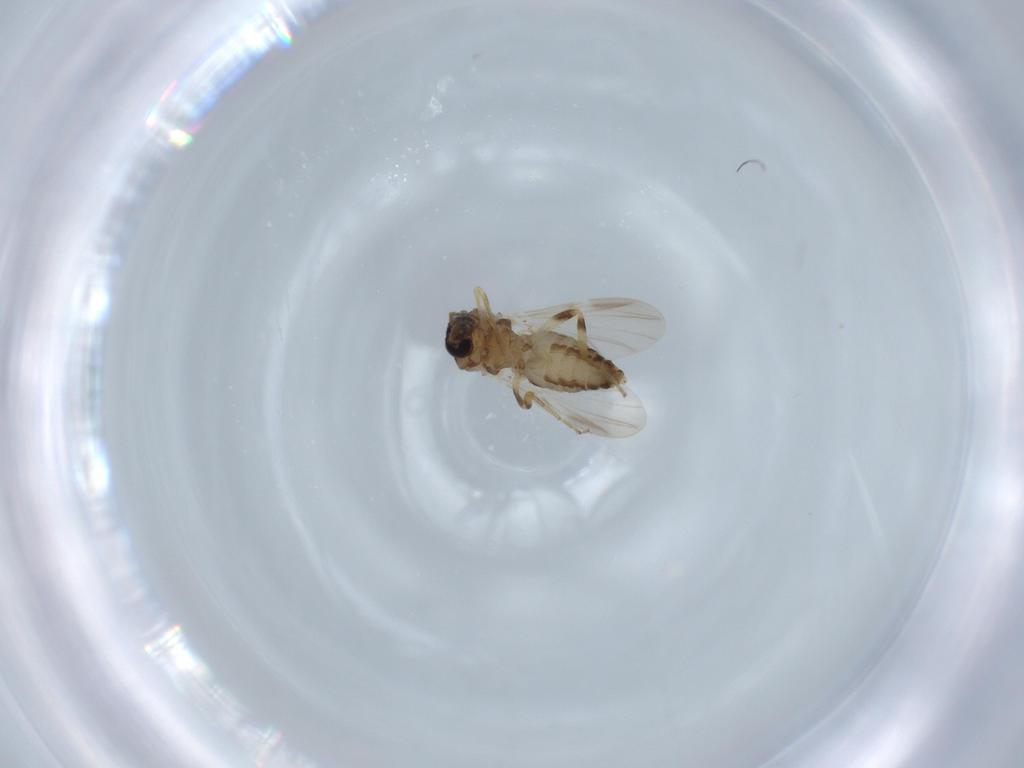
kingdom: Animalia
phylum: Arthropoda
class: Insecta
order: Diptera
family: Ceratopogonidae
